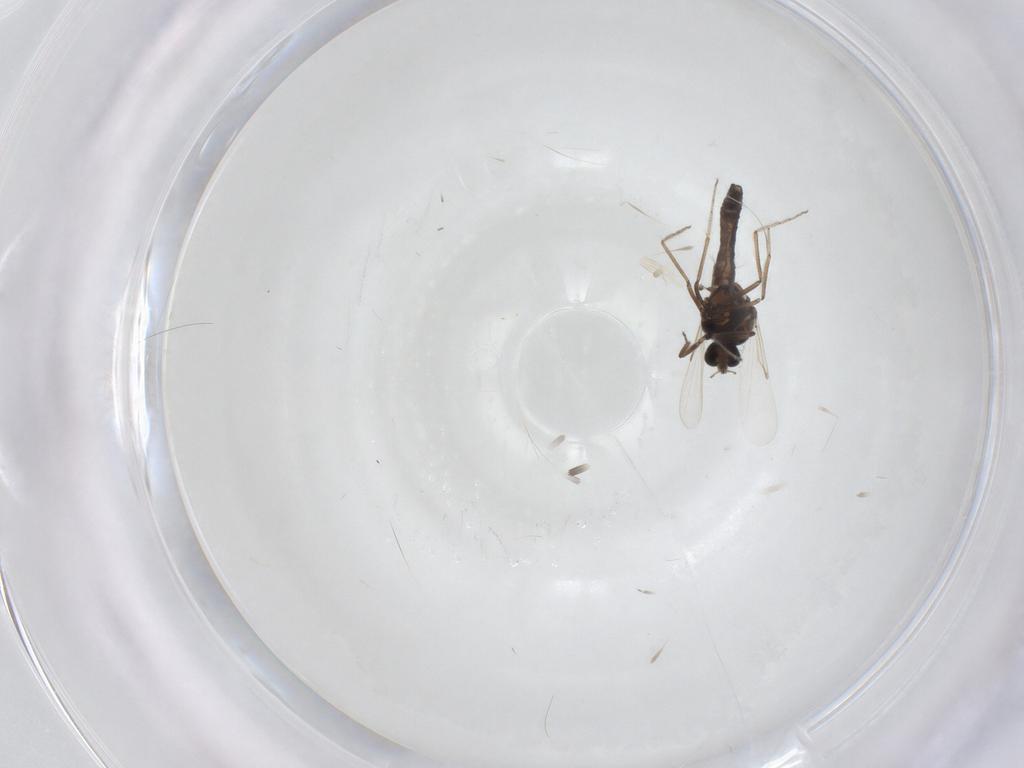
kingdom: Animalia
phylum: Arthropoda
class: Insecta
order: Diptera
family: Ceratopogonidae
